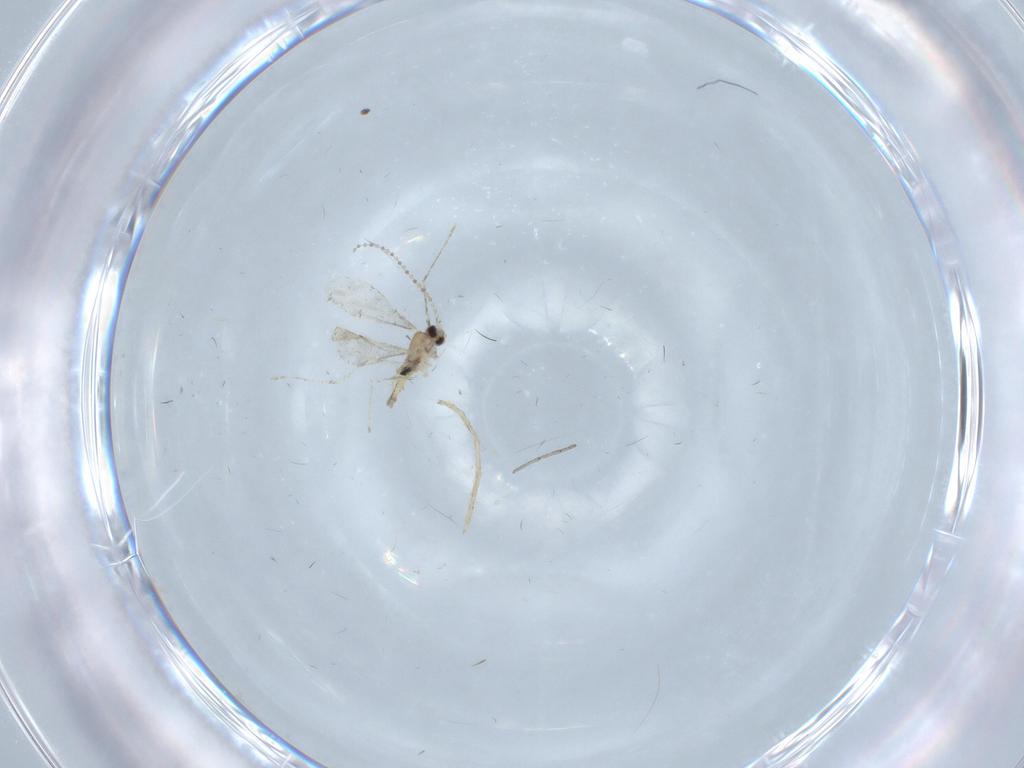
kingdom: Animalia
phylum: Arthropoda
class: Insecta
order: Diptera
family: Cecidomyiidae
